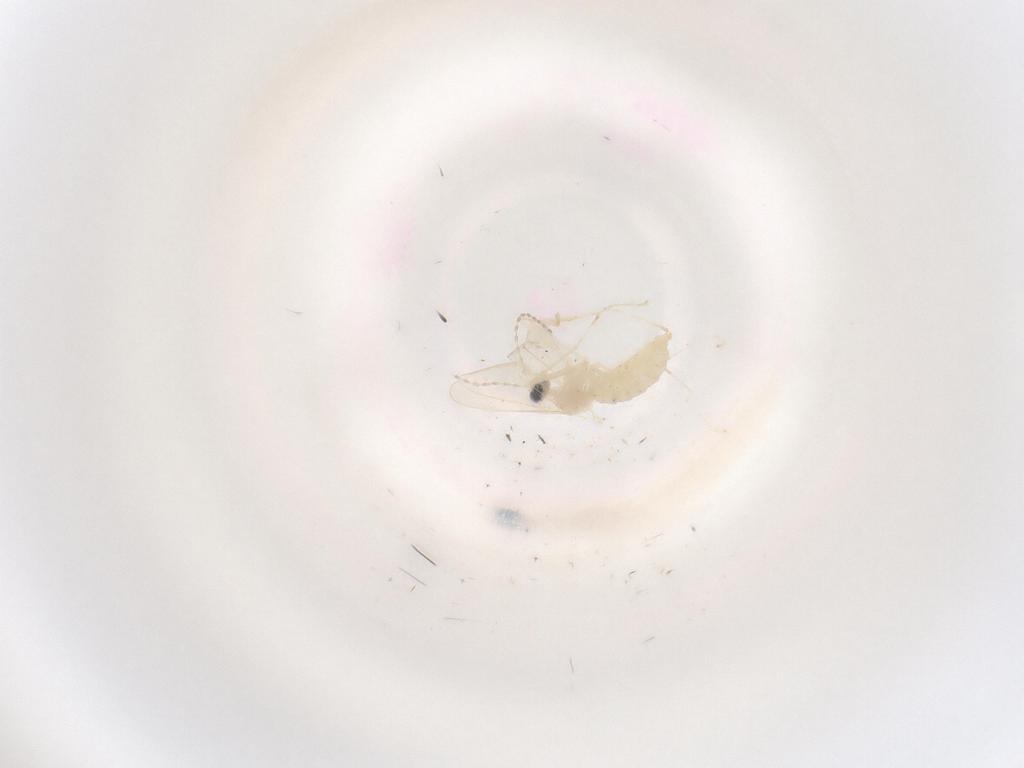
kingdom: Animalia
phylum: Arthropoda
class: Insecta
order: Diptera
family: Cecidomyiidae
